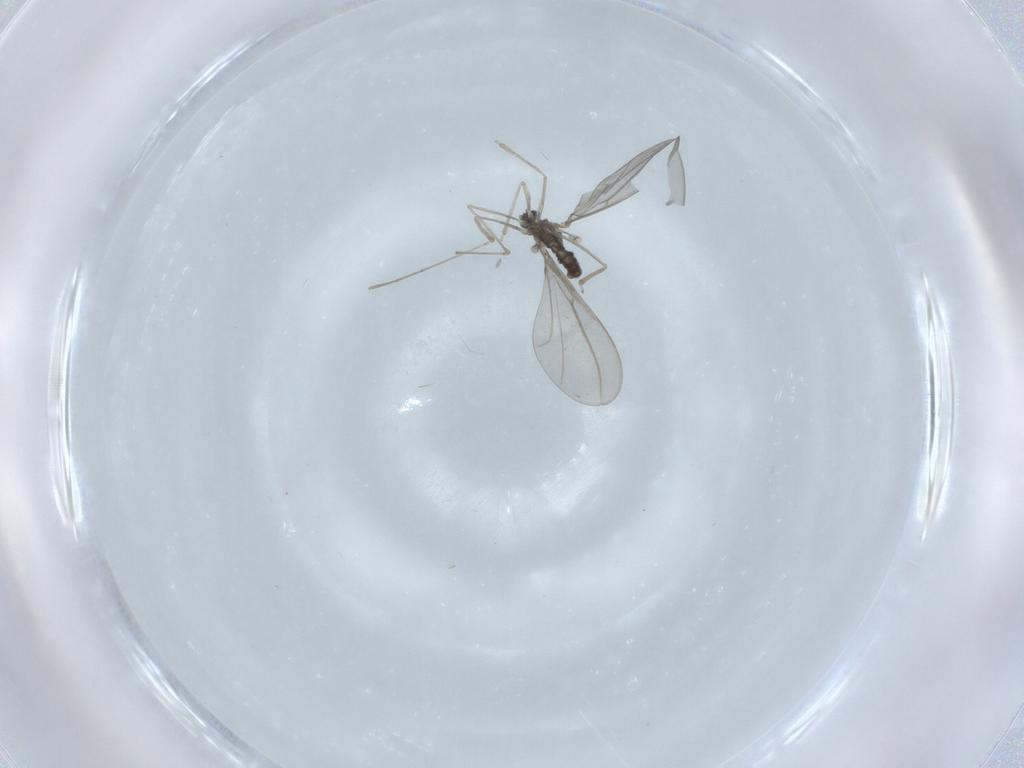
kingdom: Animalia
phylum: Arthropoda
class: Insecta
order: Diptera
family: Cecidomyiidae
